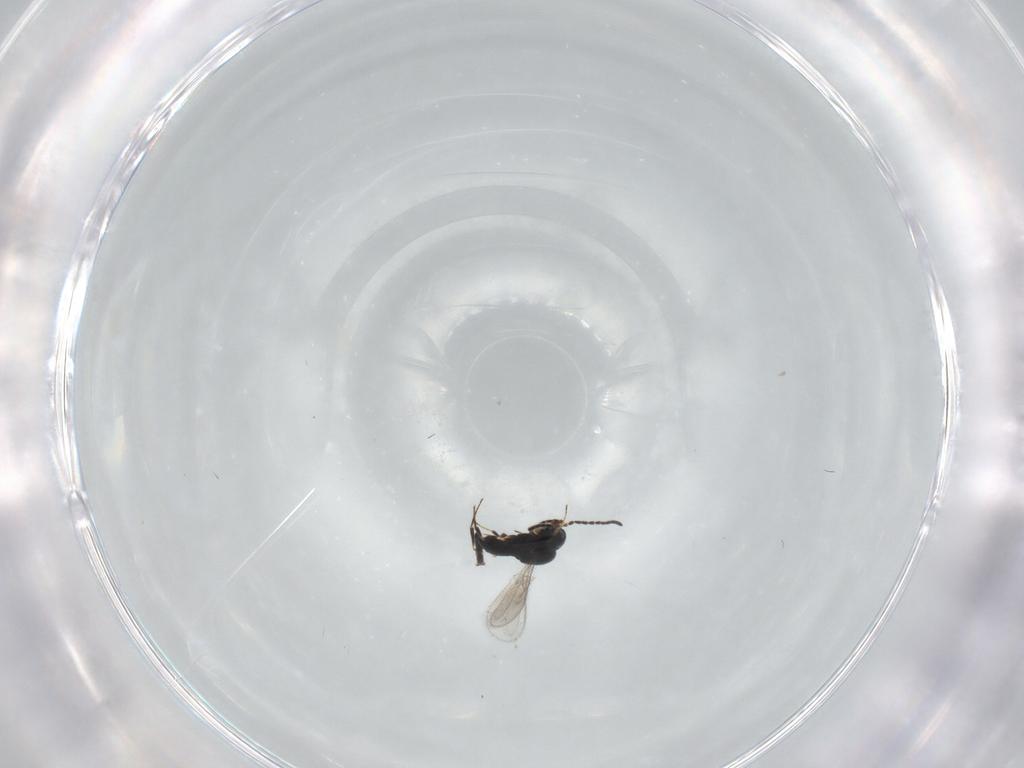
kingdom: Animalia
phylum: Arthropoda
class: Insecta
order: Hymenoptera
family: Scelionidae
